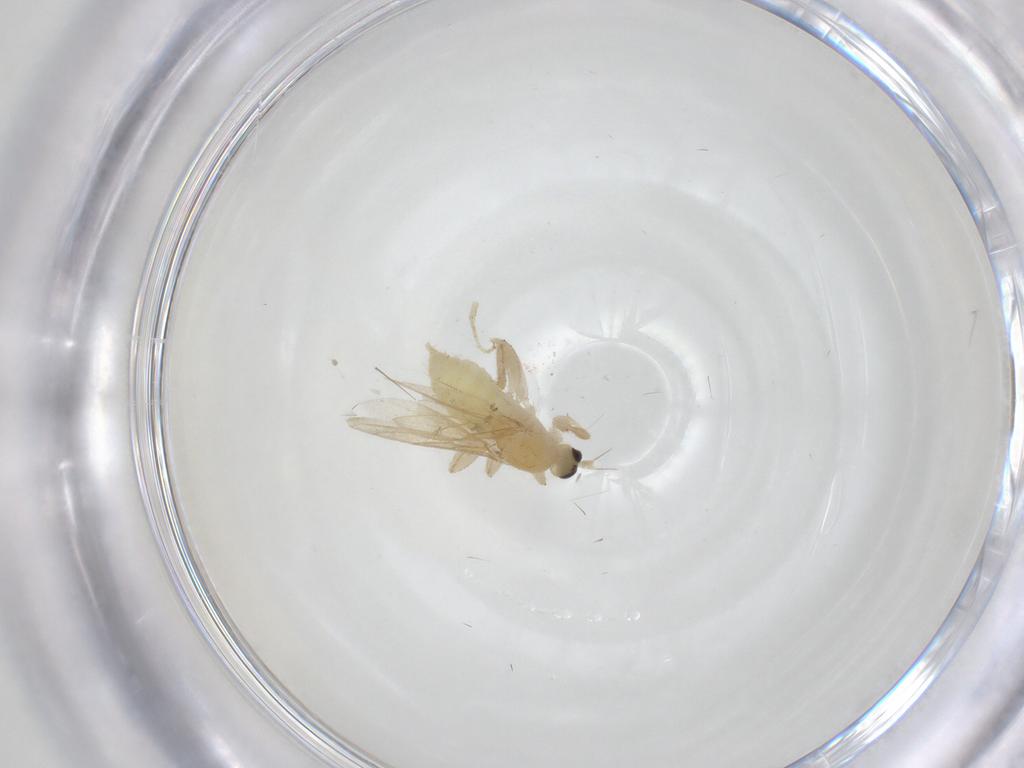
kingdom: Animalia
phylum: Arthropoda
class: Insecta
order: Diptera
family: Hybotidae
